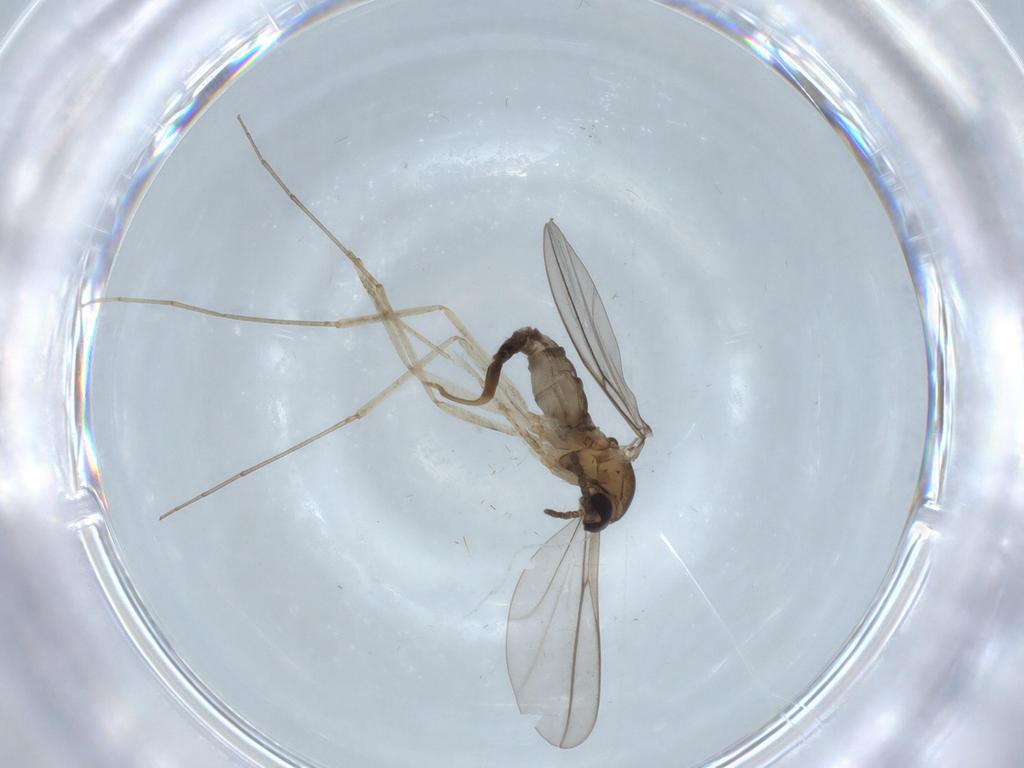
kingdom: Animalia
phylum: Arthropoda
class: Insecta
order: Diptera
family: Cecidomyiidae
